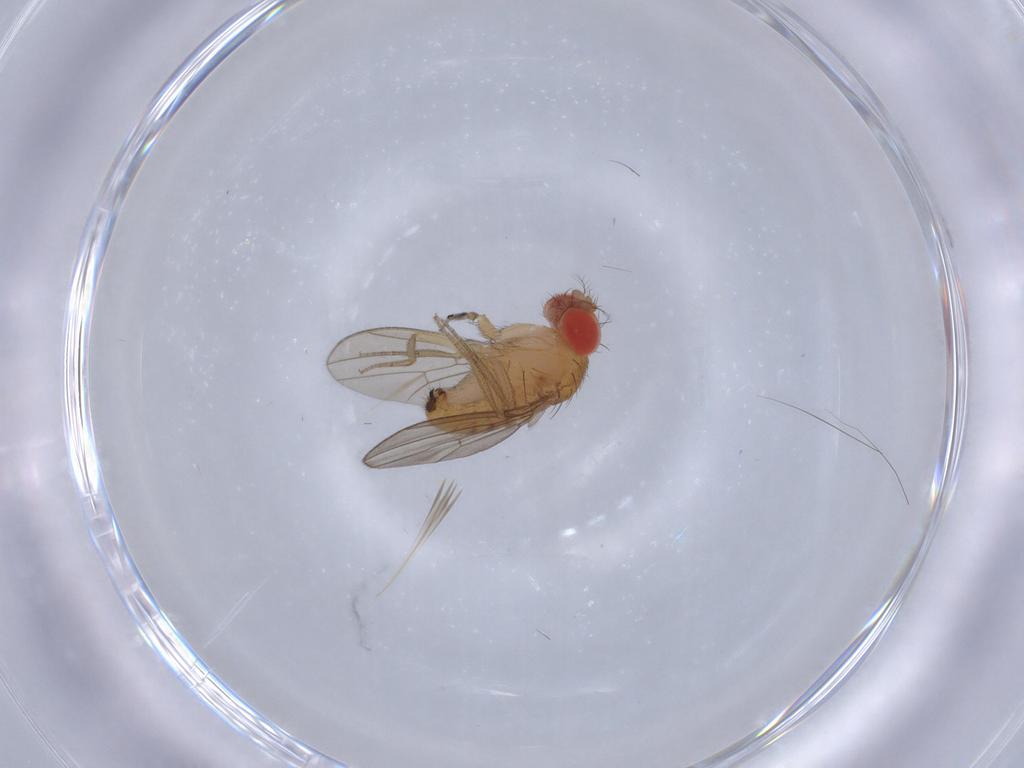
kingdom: Animalia
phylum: Arthropoda
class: Insecta
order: Diptera
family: Drosophilidae
